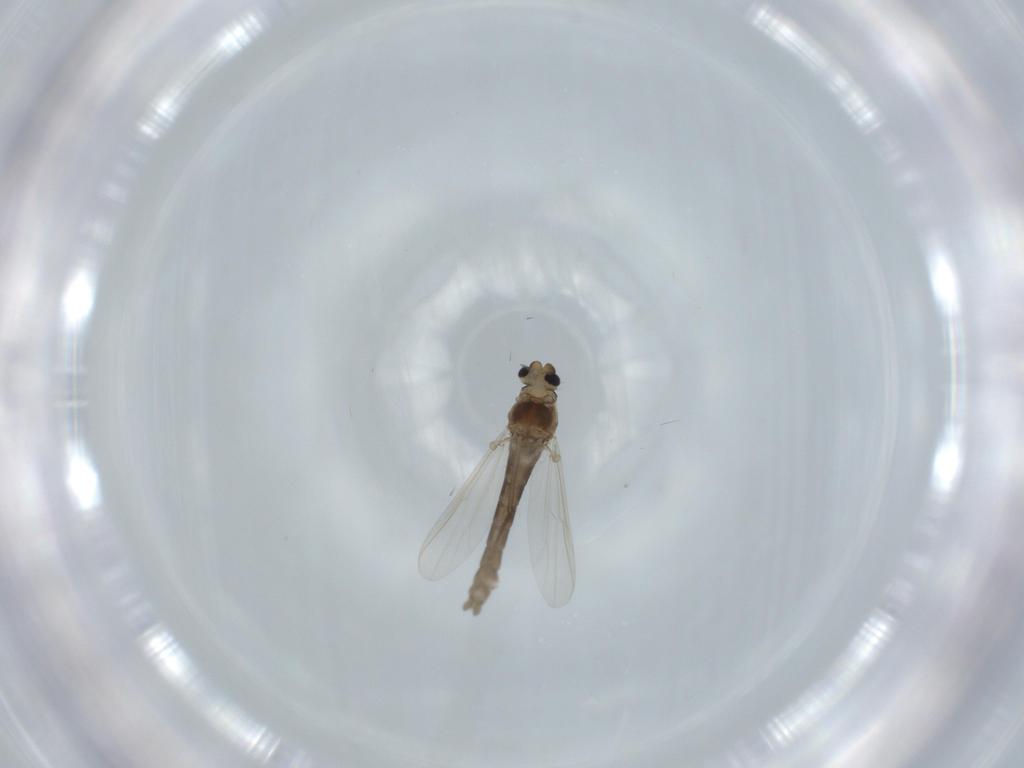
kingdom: Animalia
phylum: Arthropoda
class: Insecta
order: Diptera
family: Chironomidae
